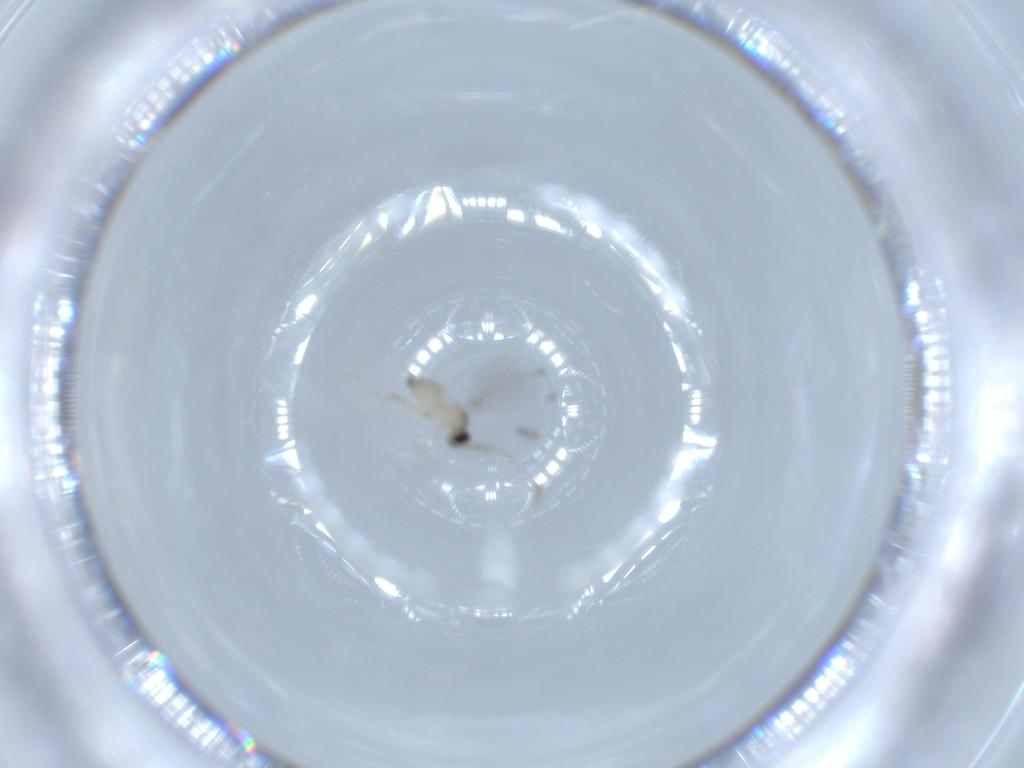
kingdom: Animalia
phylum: Arthropoda
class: Insecta
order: Diptera
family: Cecidomyiidae
